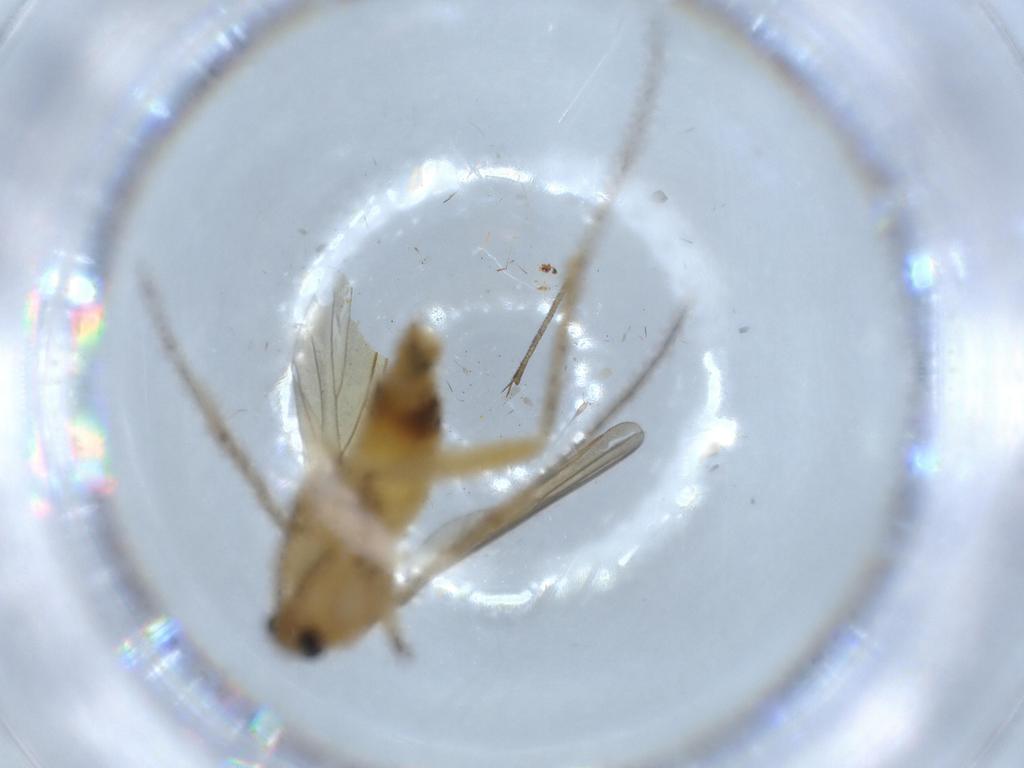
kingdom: Animalia
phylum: Arthropoda
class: Insecta
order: Diptera
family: Mycetophilidae
